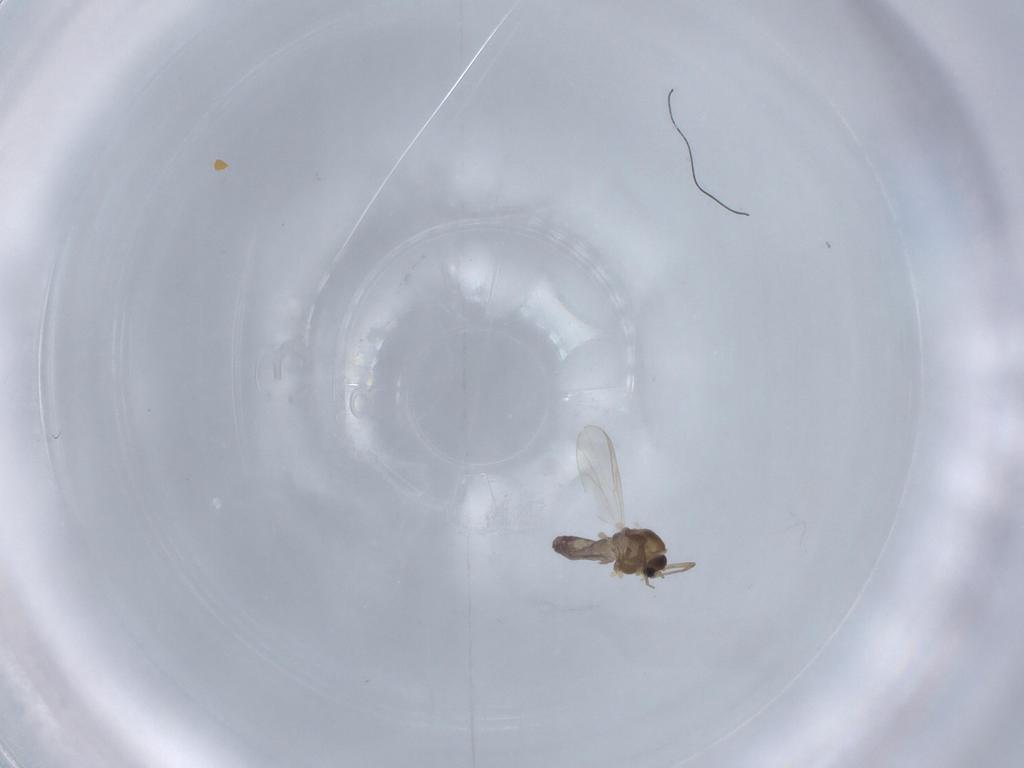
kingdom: Animalia
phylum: Arthropoda
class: Insecta
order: Diptera
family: Chironomidae
